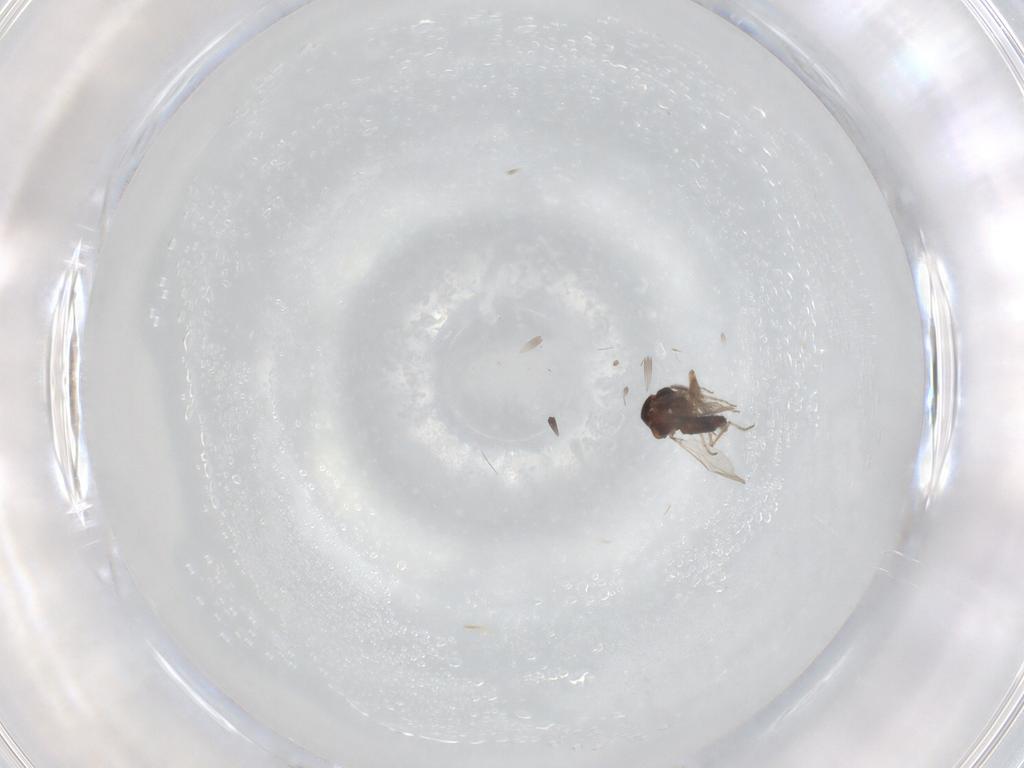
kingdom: Animalia
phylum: Arthropoda
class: Insecta
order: Diptera
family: Ceratopogonidae
